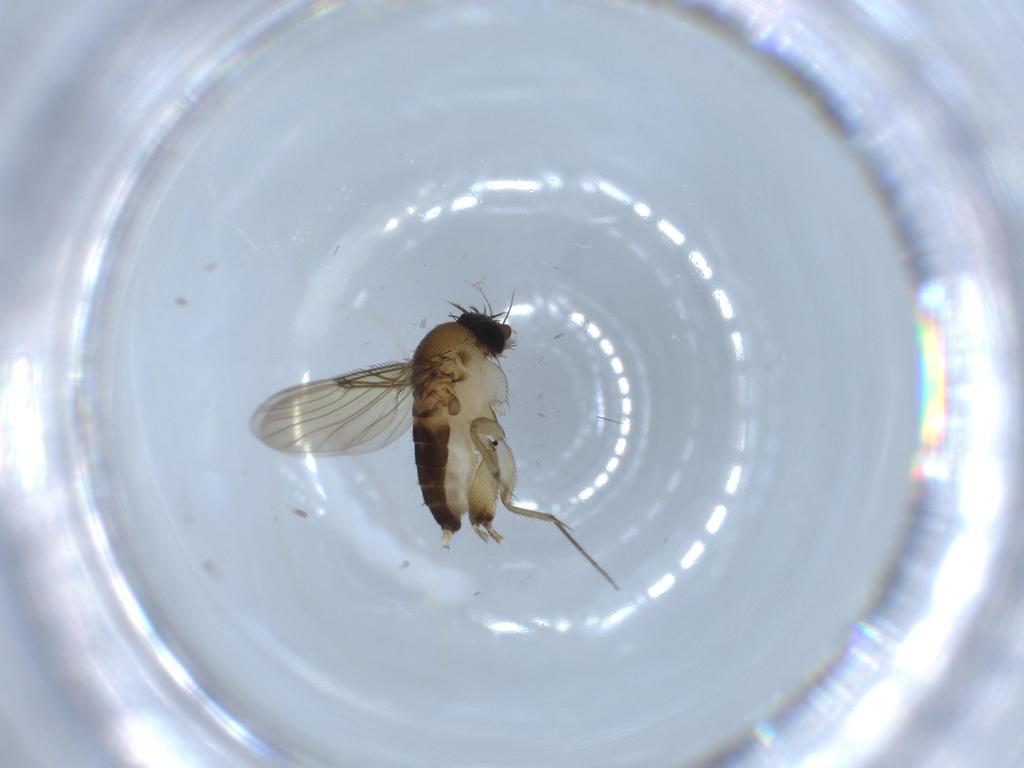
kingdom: Animalia
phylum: Arthropoda
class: Insecta
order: Diptera
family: Phoridae
